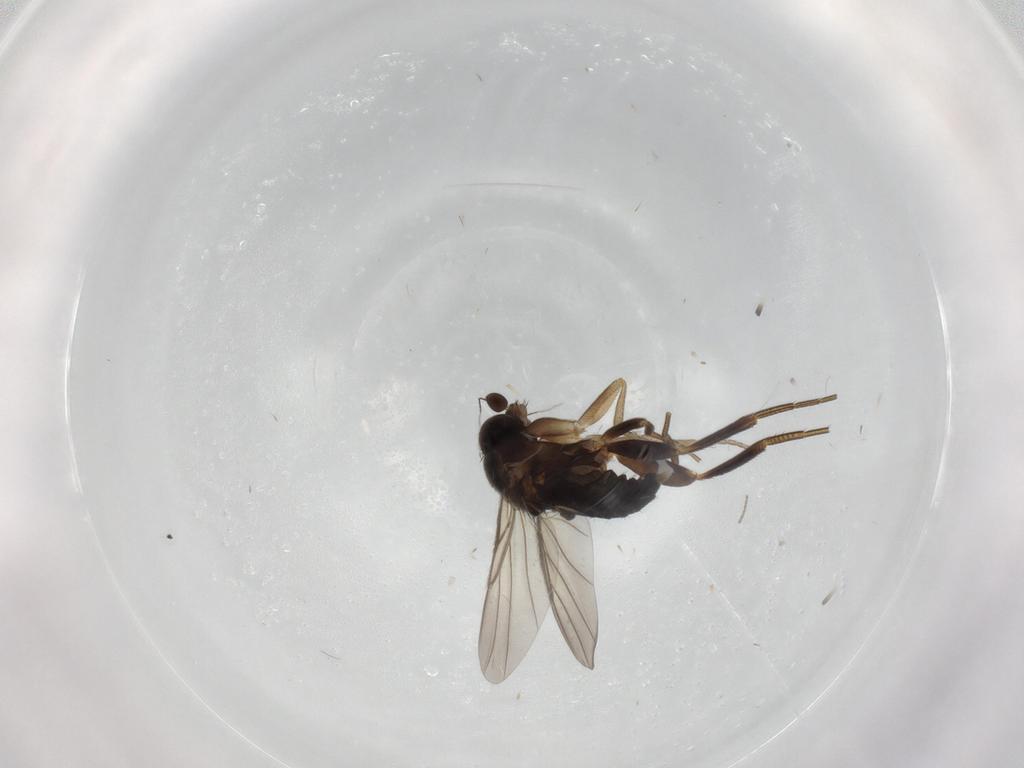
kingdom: Animalia
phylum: Arthropoda
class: Insecta
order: Diptera
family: Cecidomyiidae
